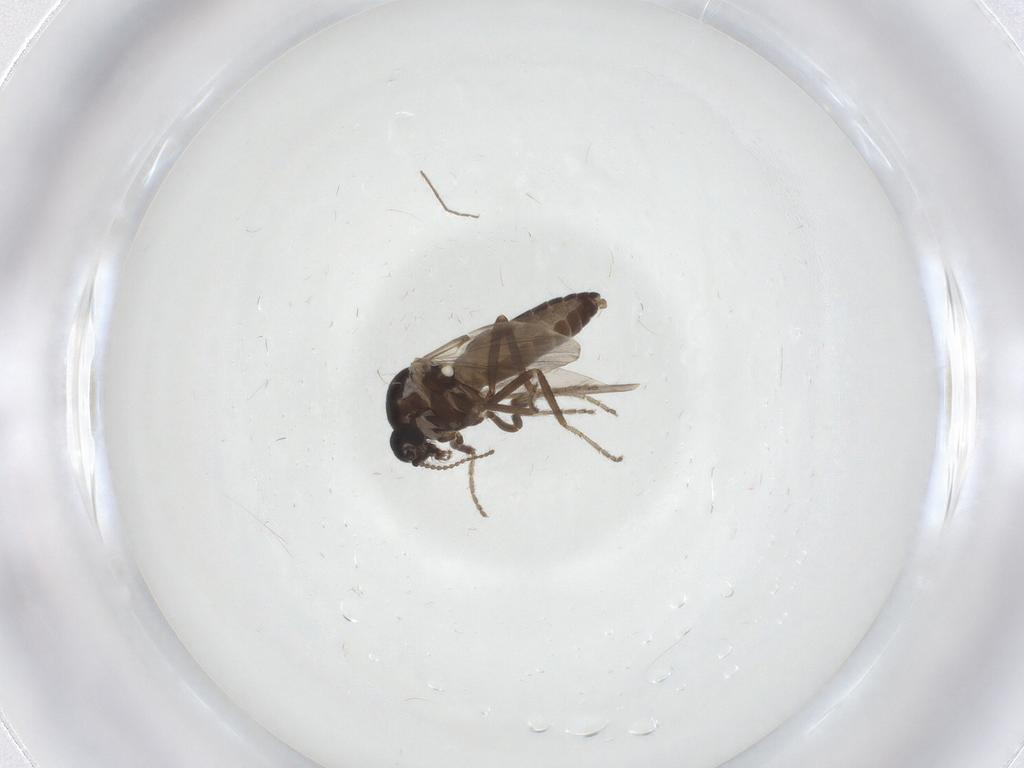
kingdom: Animalia
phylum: Arthropoda
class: Insecta
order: Diptera
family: Ceratopogonidae
